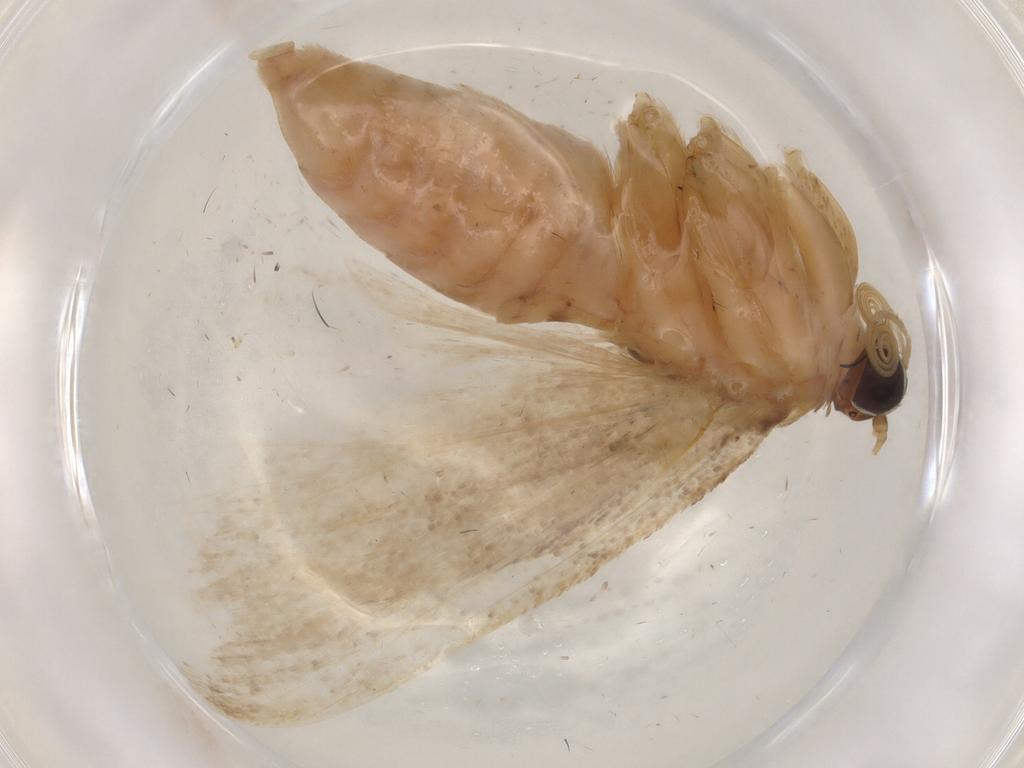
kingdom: Animalia
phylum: Arthropoda
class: Insecta
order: Lepidoptera
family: Crambidae
